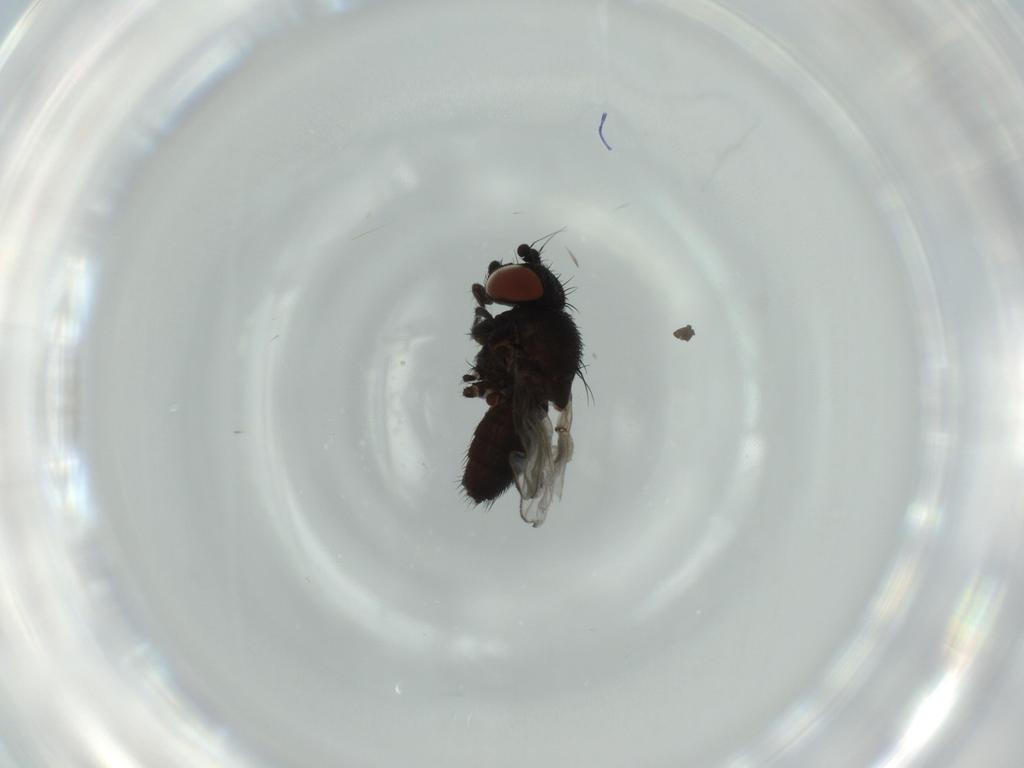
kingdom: Animalia
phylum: Arthropoda
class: Insecta
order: Diptera
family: Milichiidae
